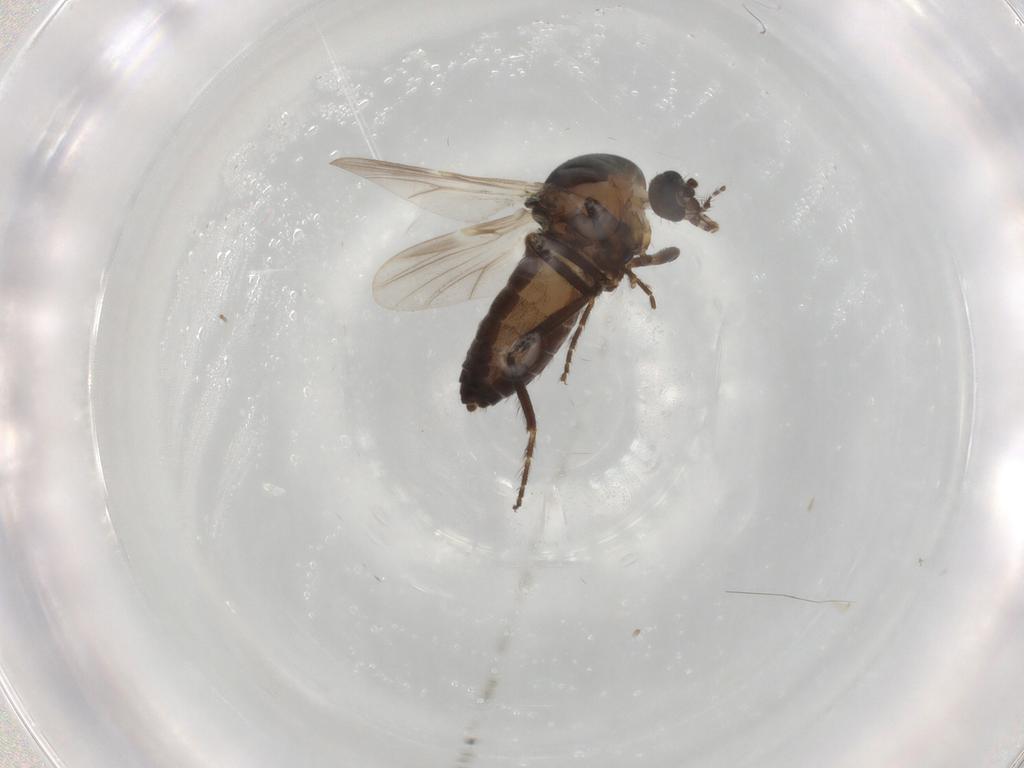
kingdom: Animalia
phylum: Arthropoda
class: Insecta
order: Diptera
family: Ceratopogonidae
